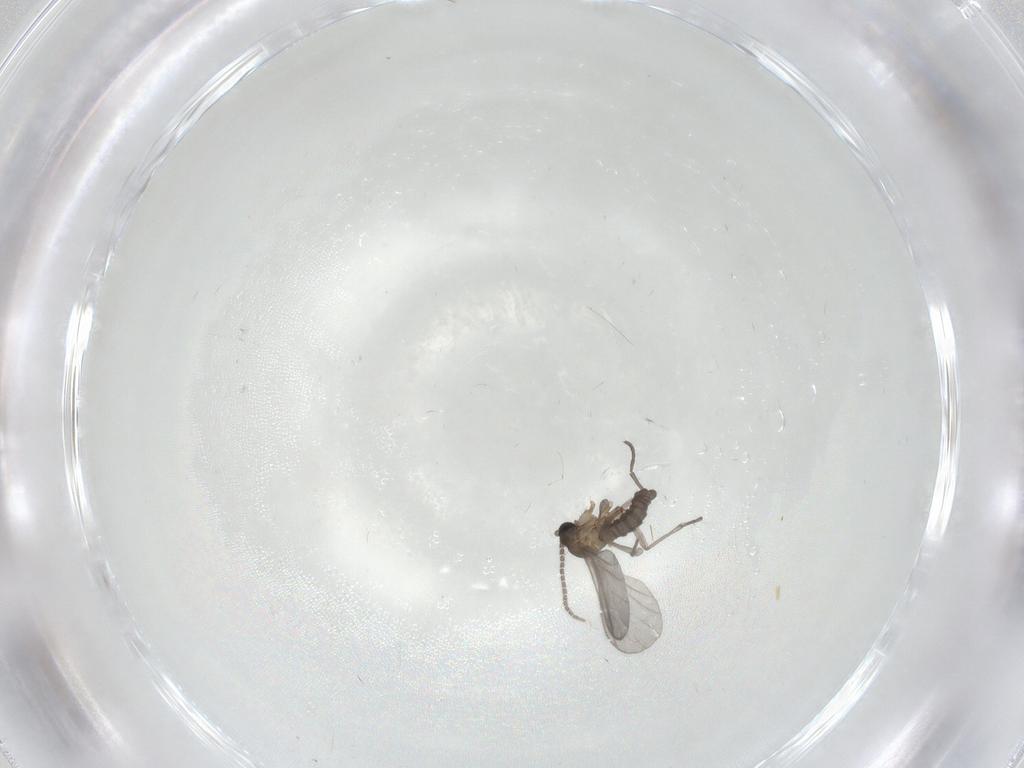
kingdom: Animalia
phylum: Arthropoda
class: Insecta
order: Diptera
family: Sciaridae
